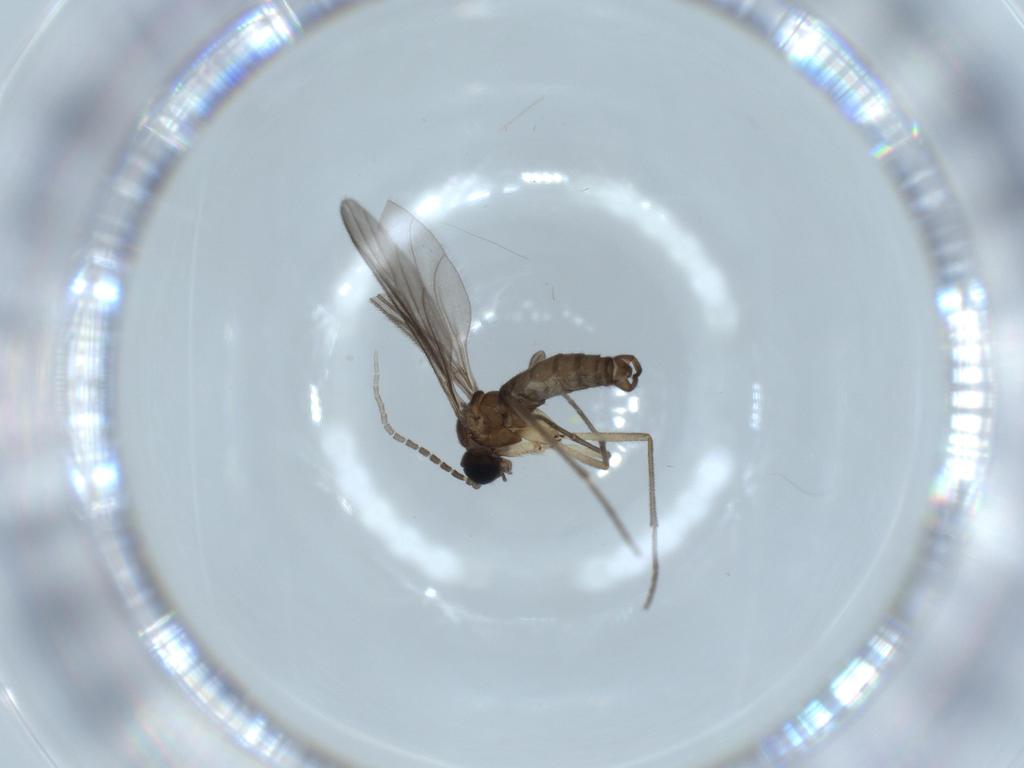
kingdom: Animalia
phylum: Arthropoda
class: Insecta
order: Diptera
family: Sciaridae
